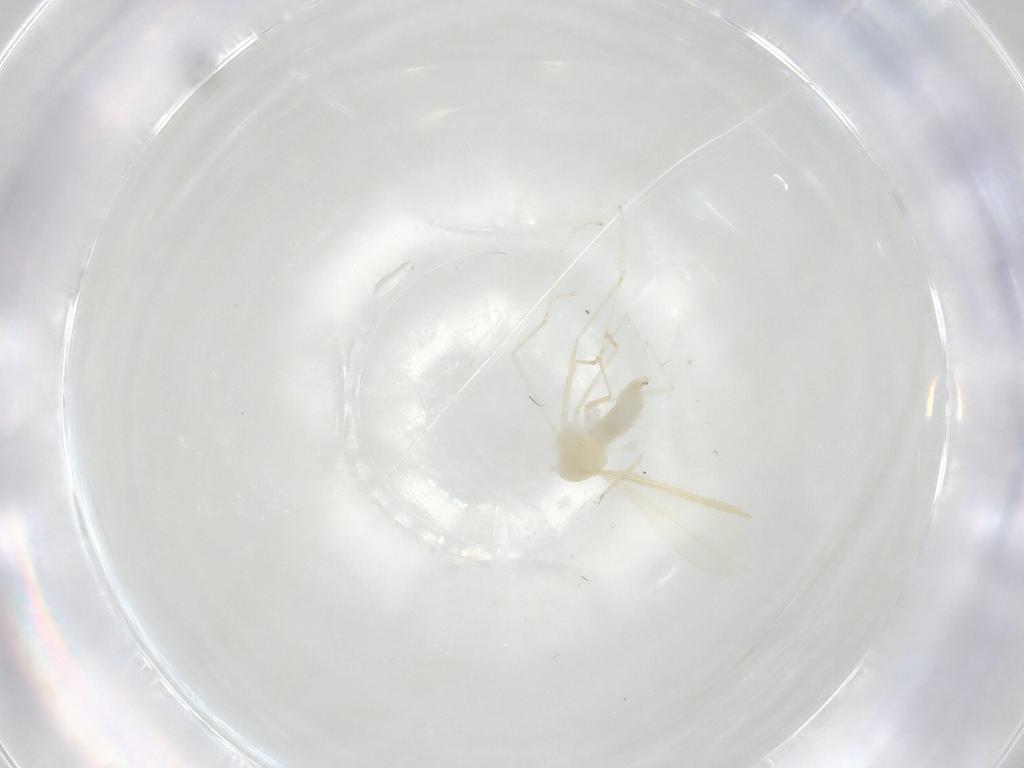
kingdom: Animalia
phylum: Arthropoda
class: Insecta
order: Diptera
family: Cecidomyiidae
